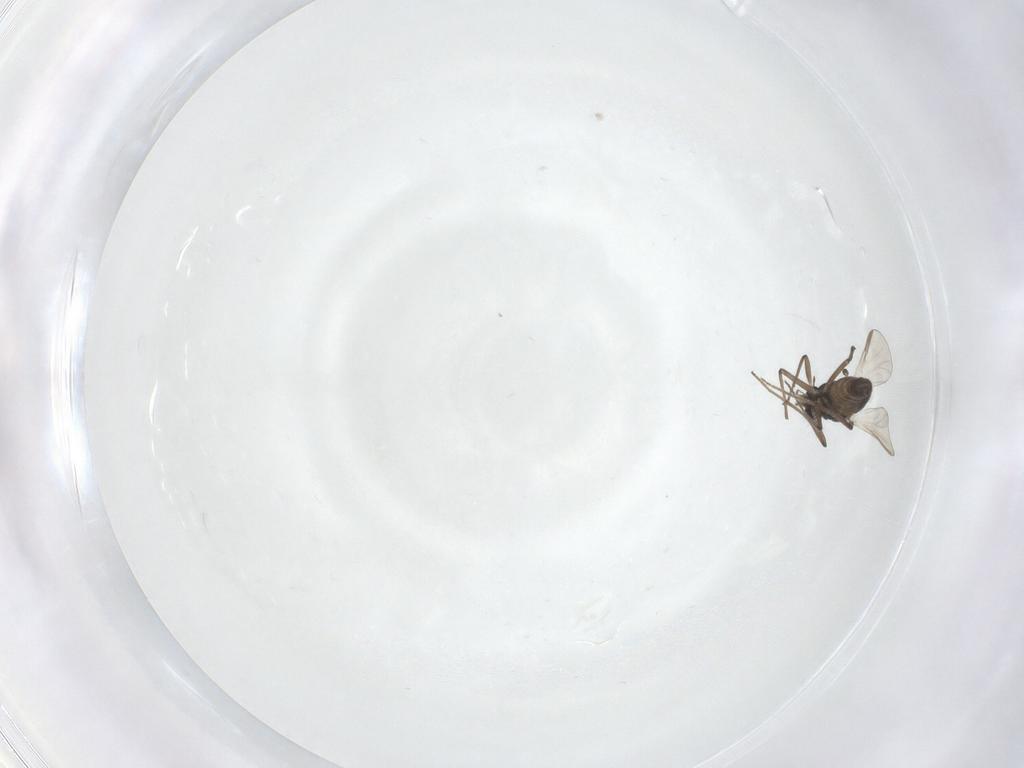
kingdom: Animalia
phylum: Arthropoda
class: Insecta
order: Diptera
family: Chironomidae
